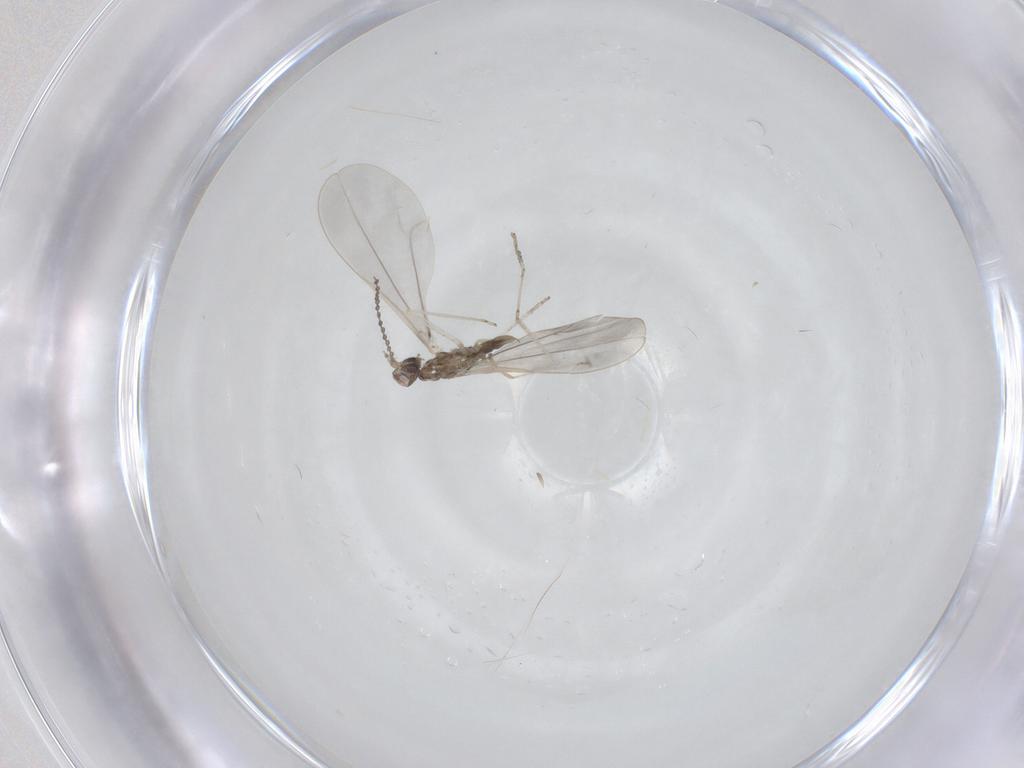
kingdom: Animalia
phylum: Arthropoda
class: Insecta
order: Diptera
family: Cecidomyiidae
